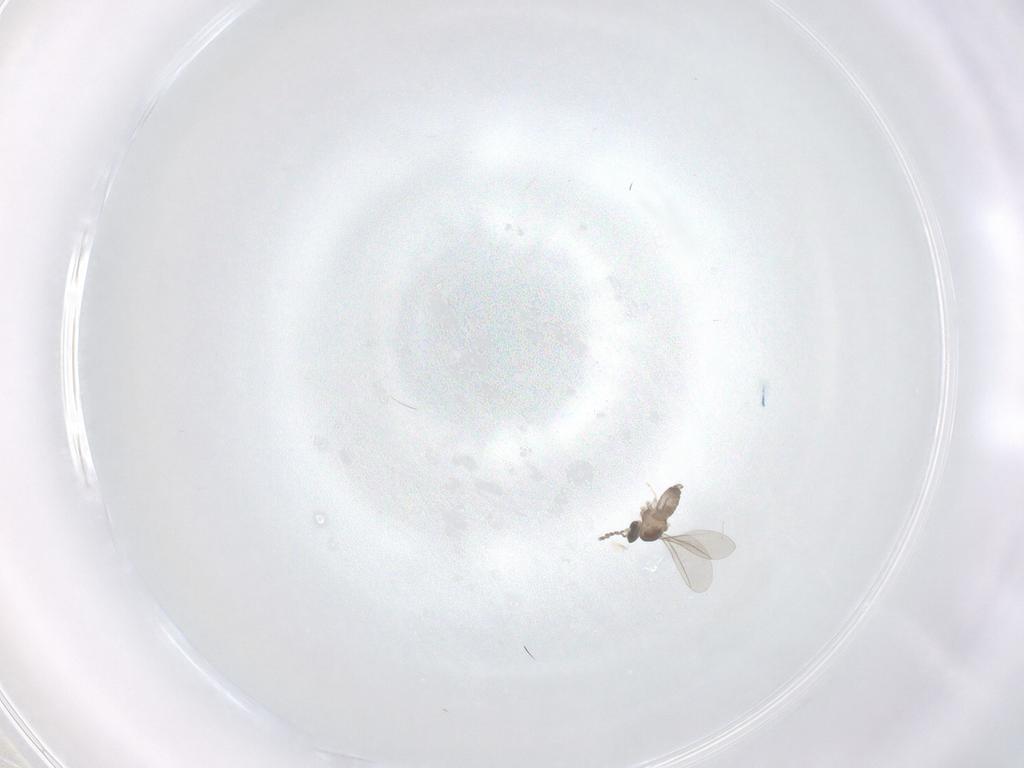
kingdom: Animalia
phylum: Arthropoda
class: Insecta
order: Diptera
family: Cecidomyiidae
